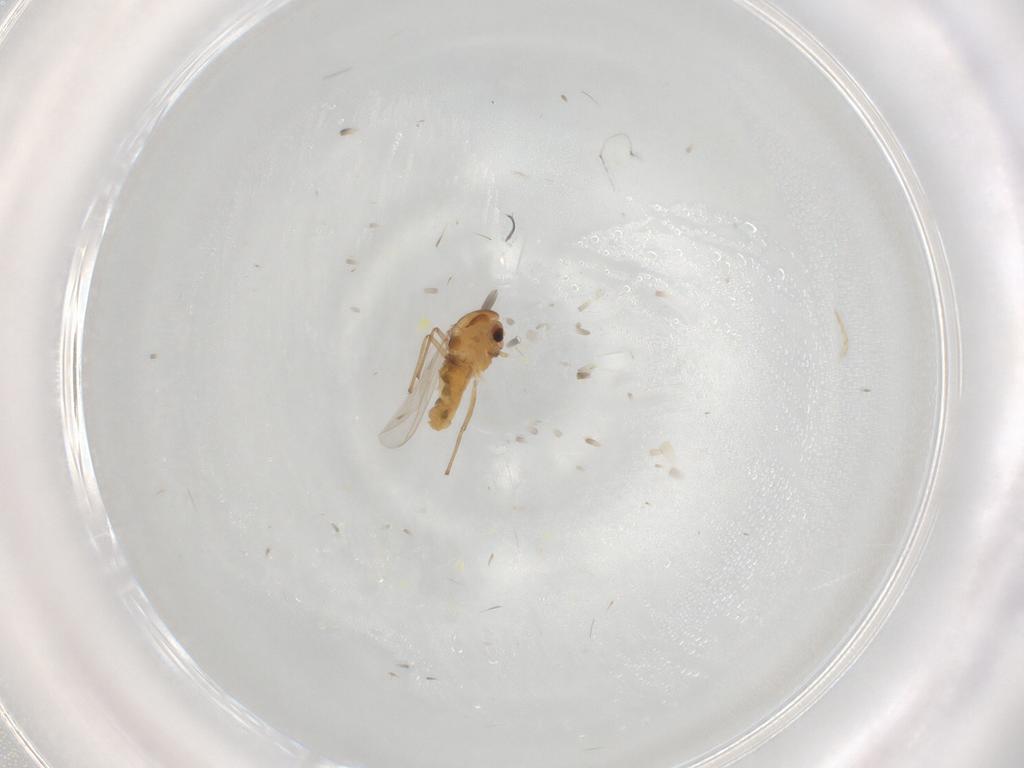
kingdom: Animalia
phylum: Arthropoda
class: Insecta
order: Diptera
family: Chironomidae
